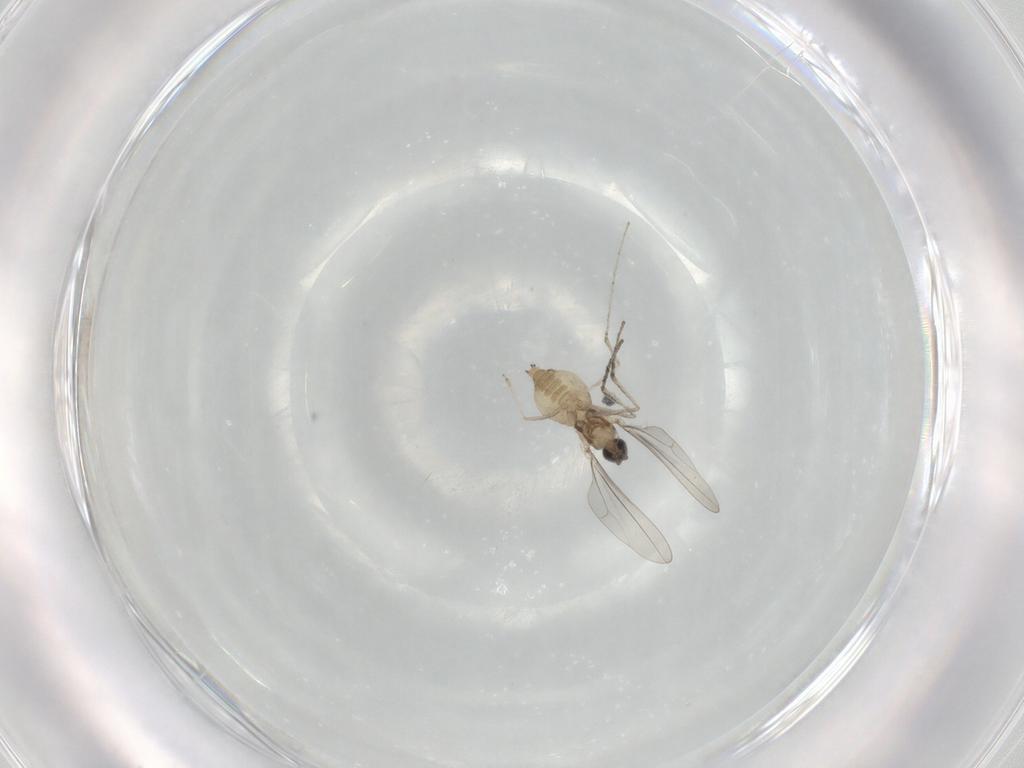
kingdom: Animalia
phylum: Arthropoda
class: Insecta
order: Diptera
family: Cecidomyiidae
